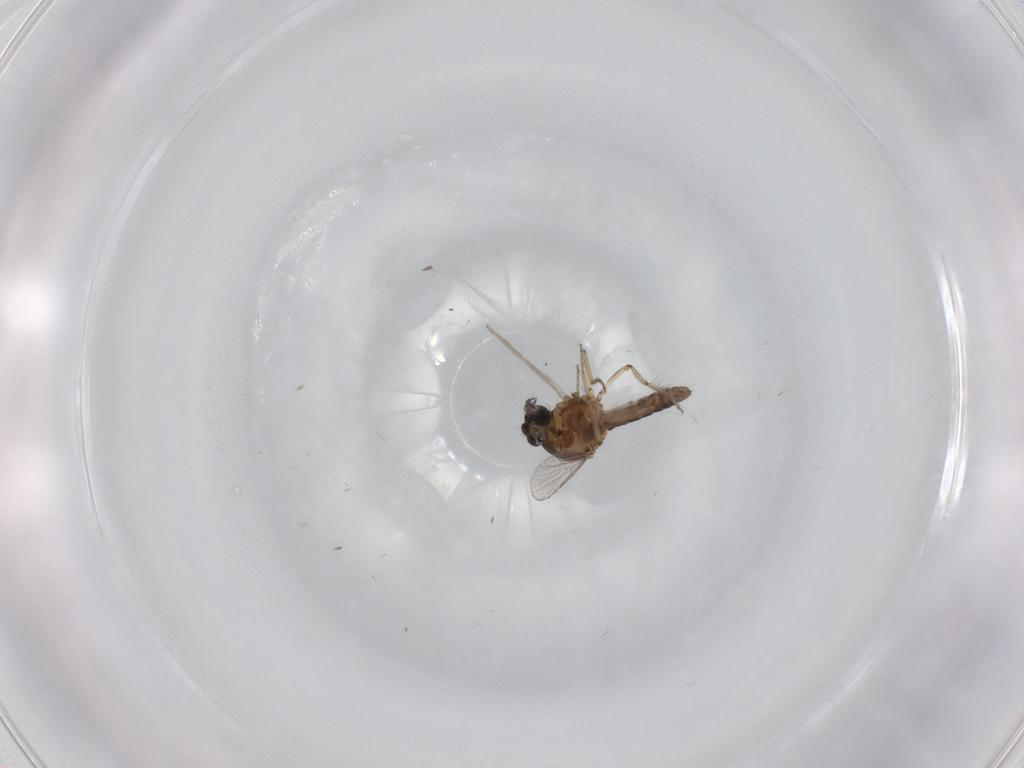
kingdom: Animalia
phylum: Arthropoda
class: Insecta
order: Diptera
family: Ceratopogonidae
